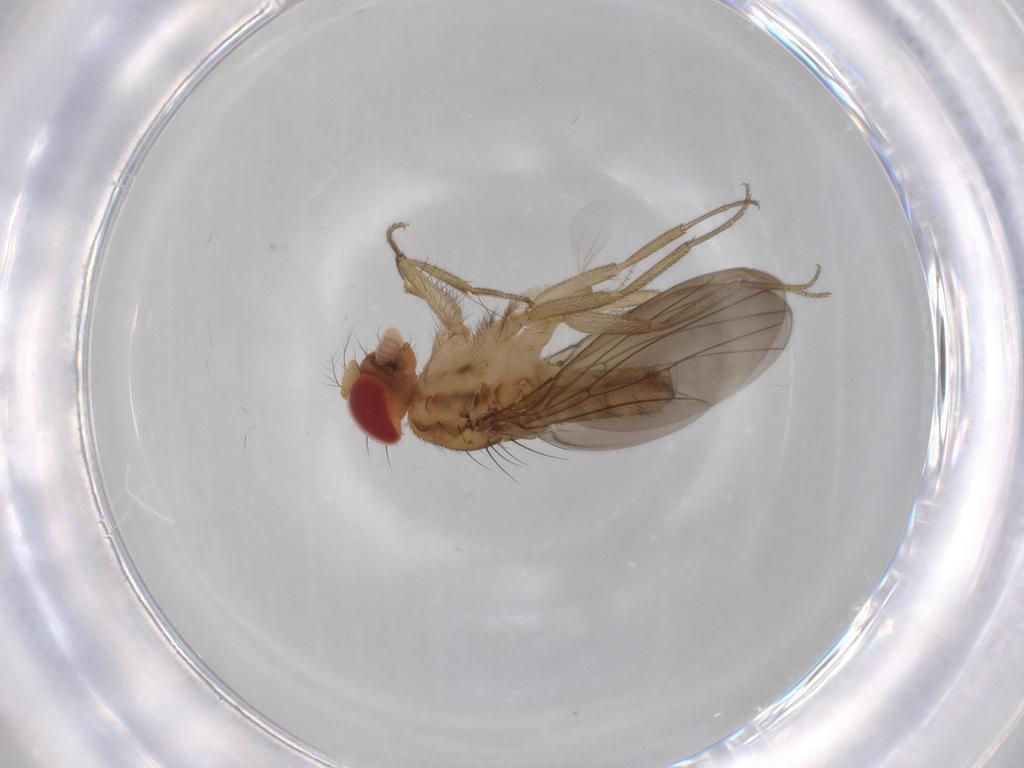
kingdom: Animalia
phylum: Arthropoda
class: Insecta
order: Diptera
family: Drosophilidae
